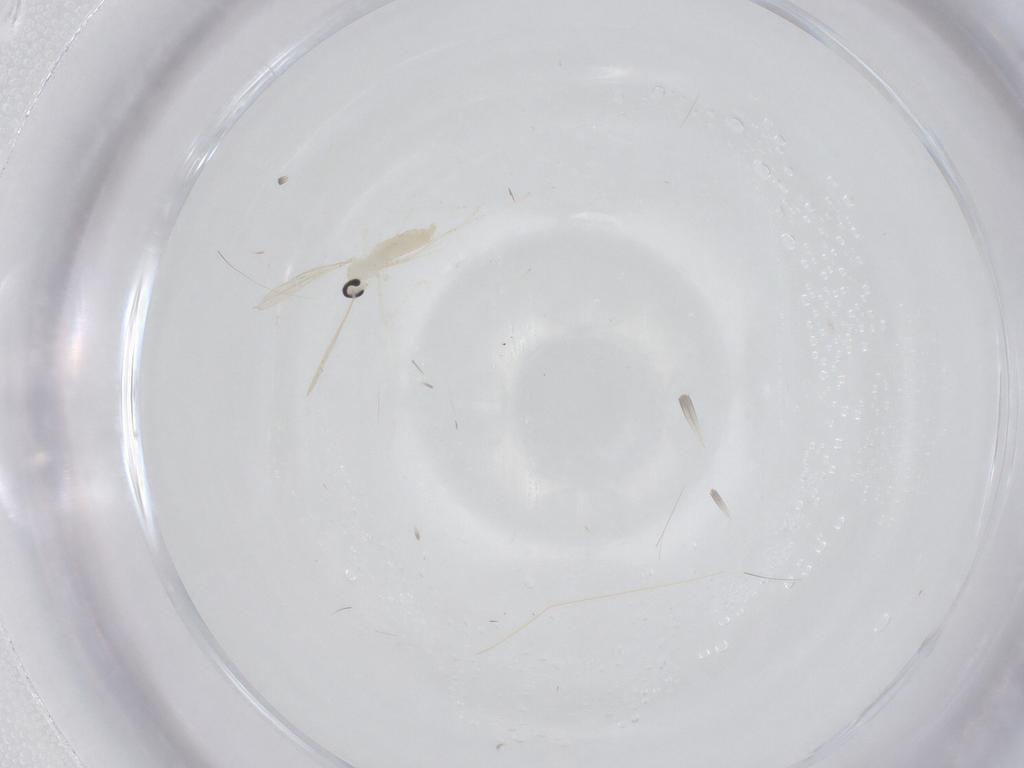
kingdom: Animalia
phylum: Arthropoda
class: Insecta
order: Diptera
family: Cecidomyiidae
